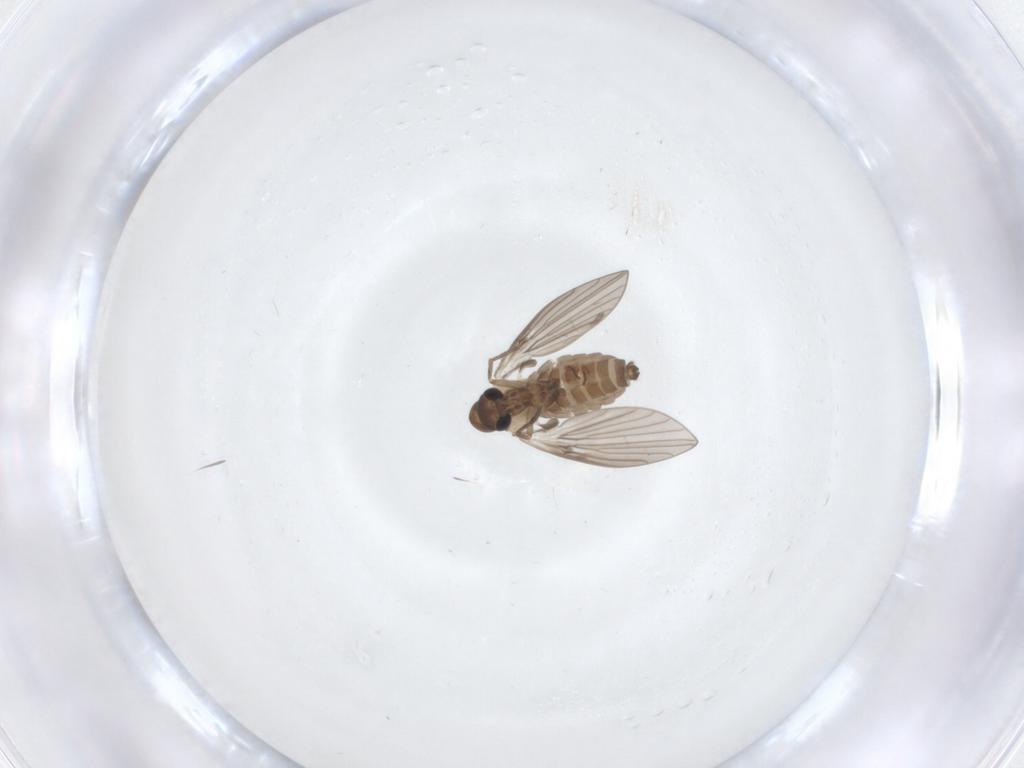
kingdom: Animalia
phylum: Arthropoda
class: Insecta
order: Diptera
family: Psychodidae
